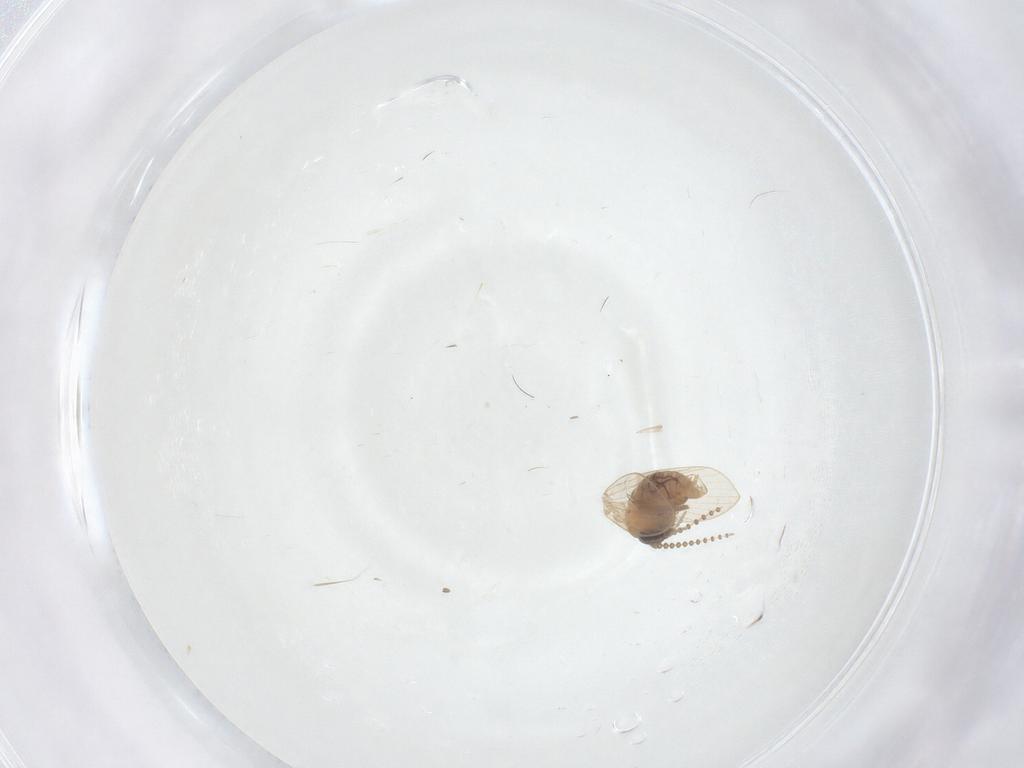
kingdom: Animalia
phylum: Arthropoda
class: Insecta
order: Diptera
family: Psychodidae
